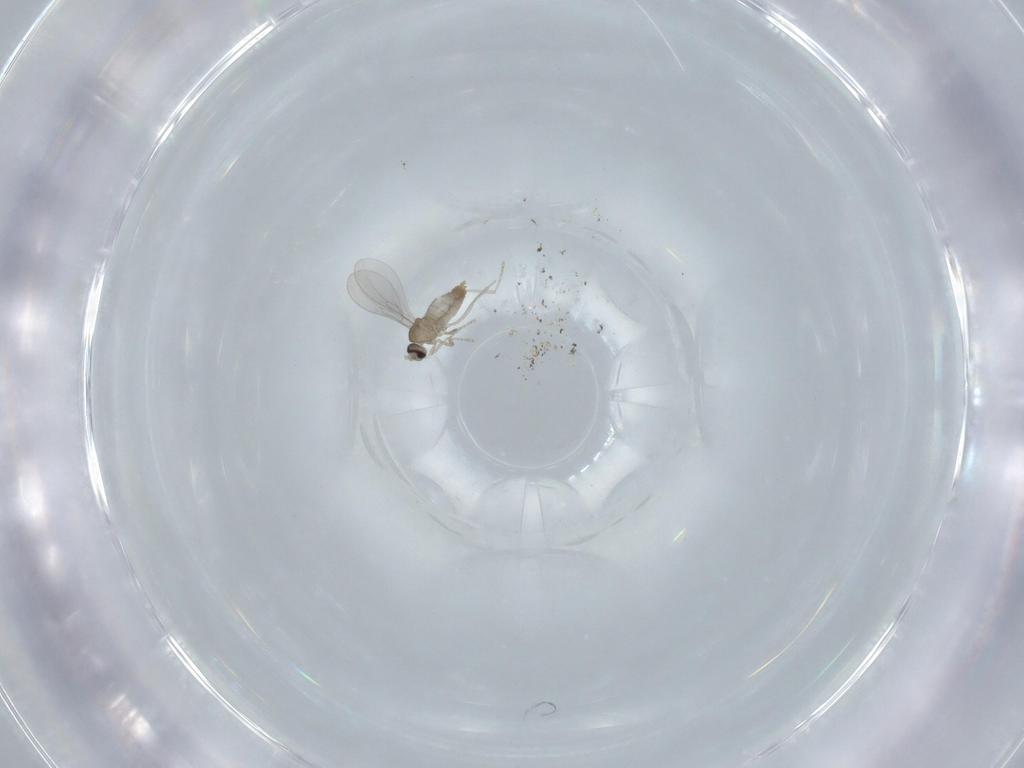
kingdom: Animalia
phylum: Arthropoda
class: Insecta
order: Diptera
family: Cecidomyiidae
